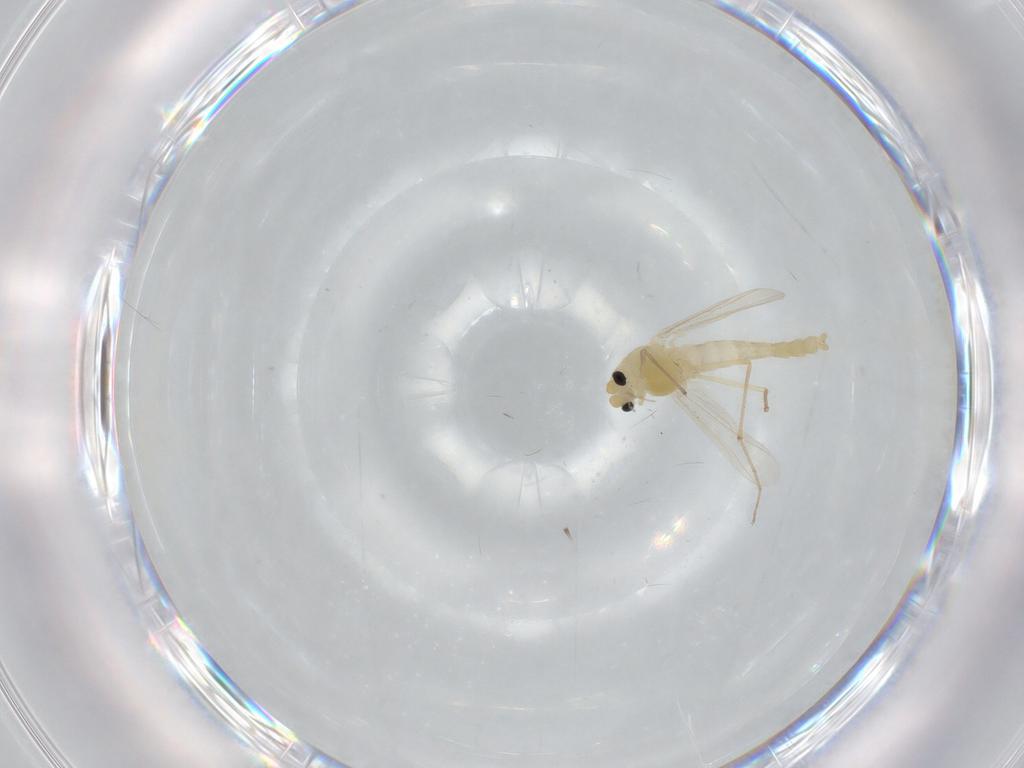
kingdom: Animalia
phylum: Arthropoda
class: Insecta
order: Diptera
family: Chironomidae
